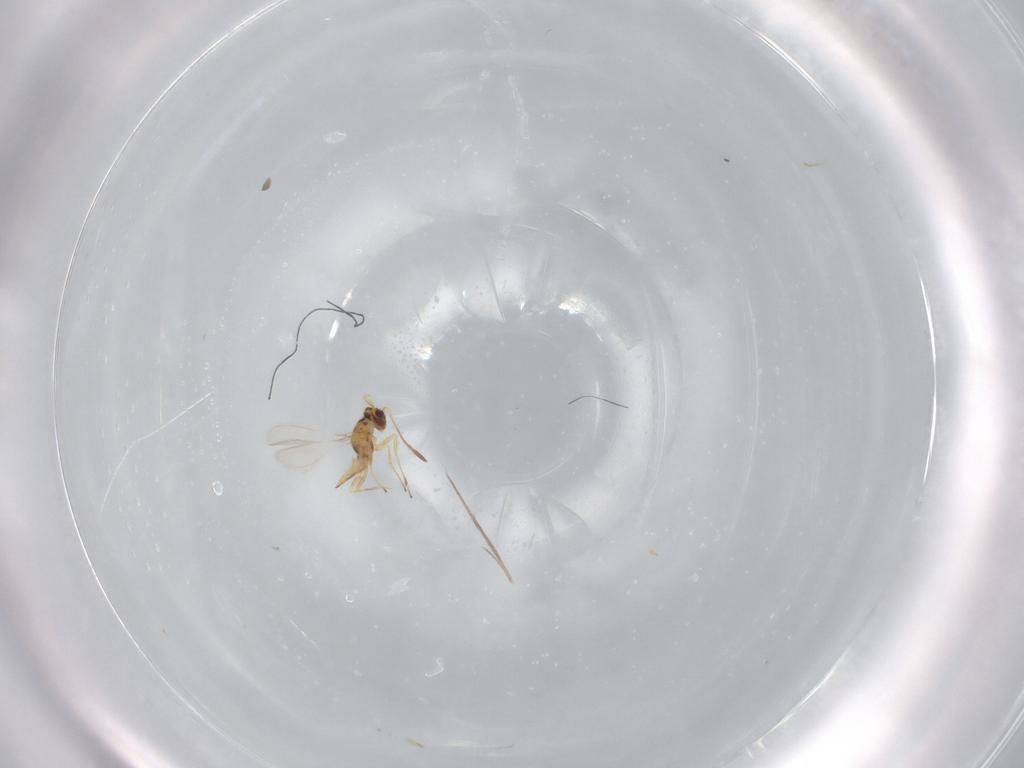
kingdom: Animalia
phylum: Arthropoda
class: Insecta
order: Hymenoptera
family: Mymaridae
